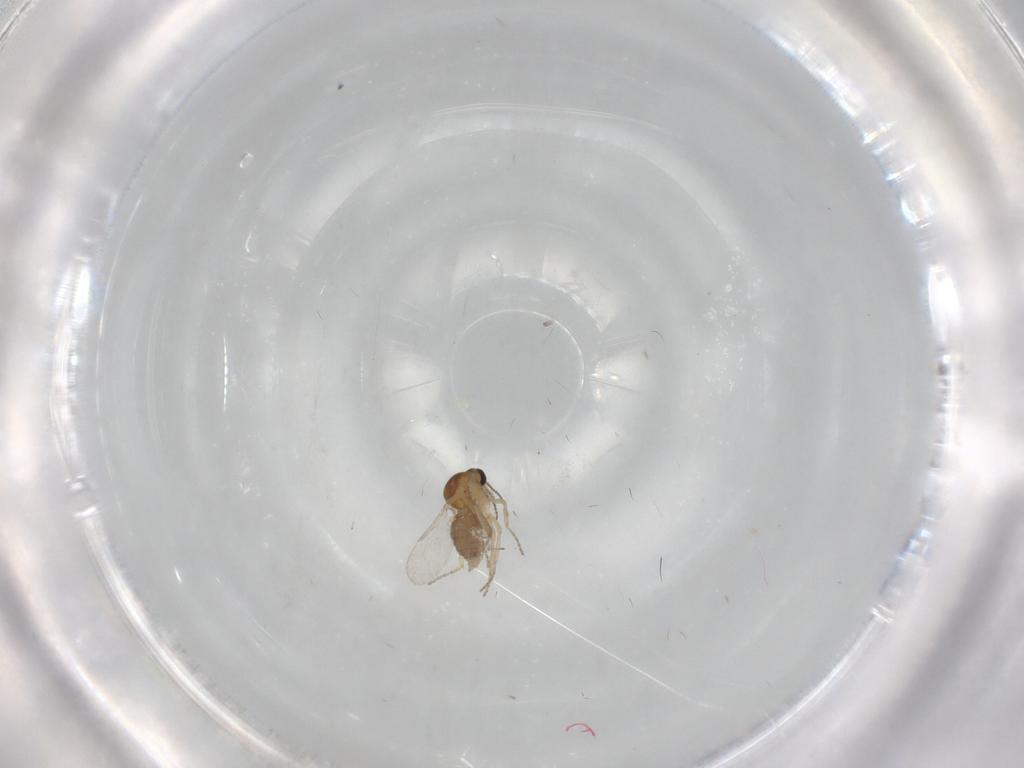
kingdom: Animalia
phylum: Arthropoda
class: Insecta
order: Diptera
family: Ceratopogonidae
